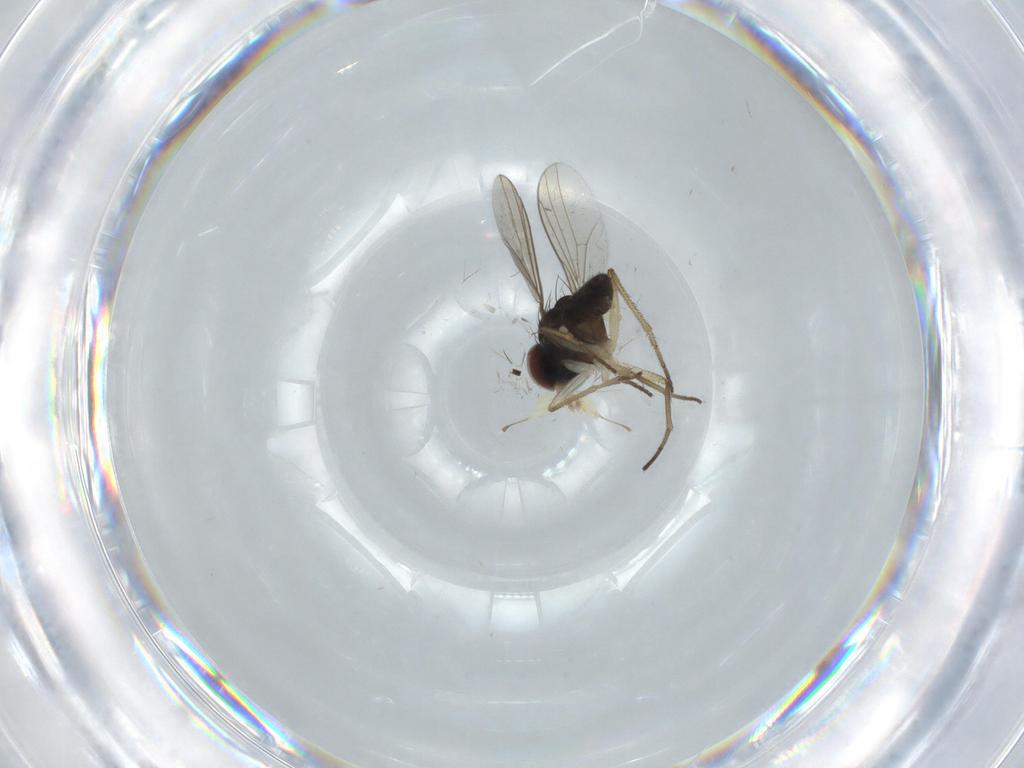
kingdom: Animalia
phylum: Arthropoda
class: Insecta
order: Diptera
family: Dolichopodidae
